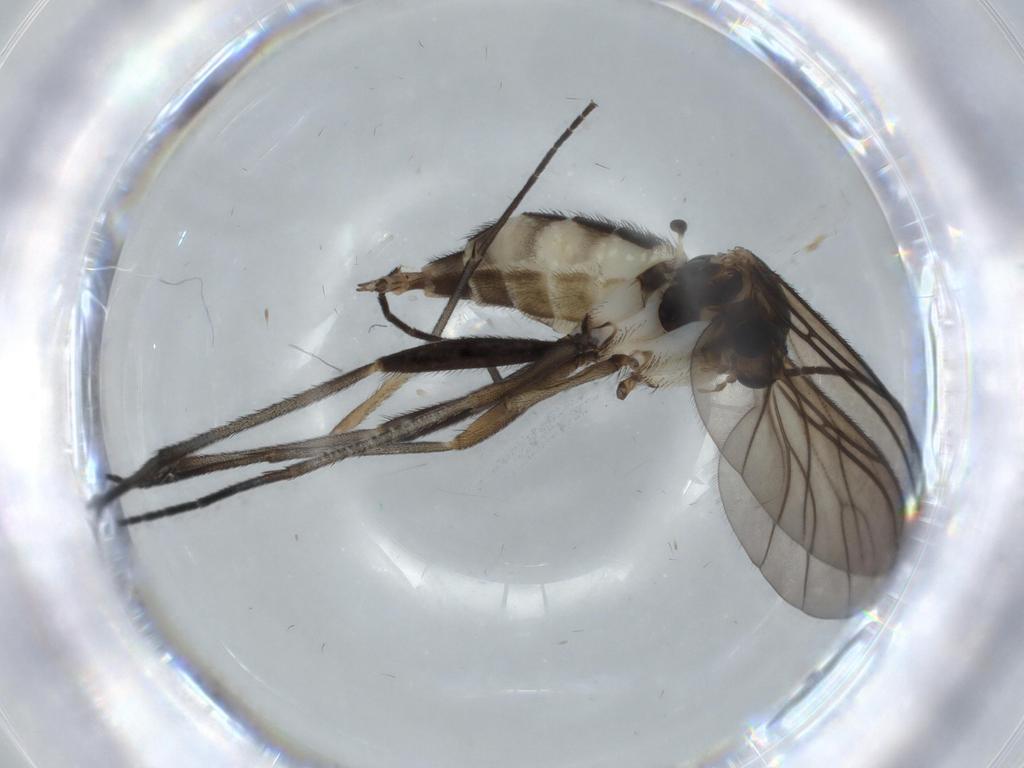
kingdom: Animalia
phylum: Arthropoda
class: Insecta
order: Diptera
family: Sciaridae
